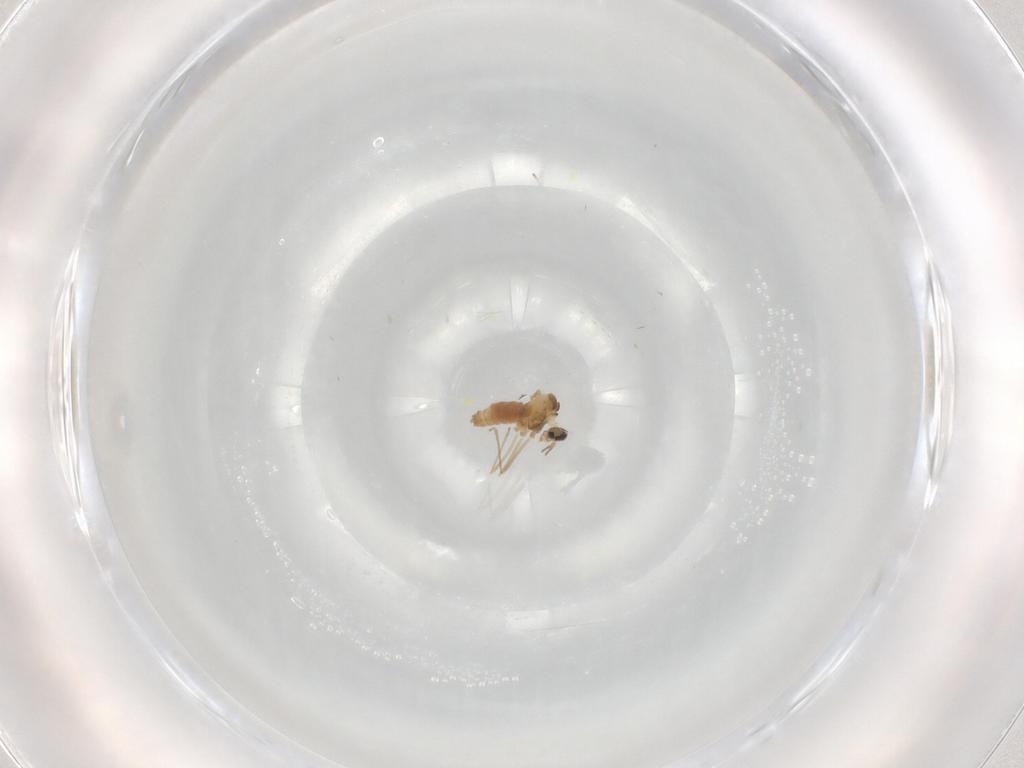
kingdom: Animalia
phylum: Arthropoda
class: Insecta
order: Diptera
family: Cecidomyiidae
